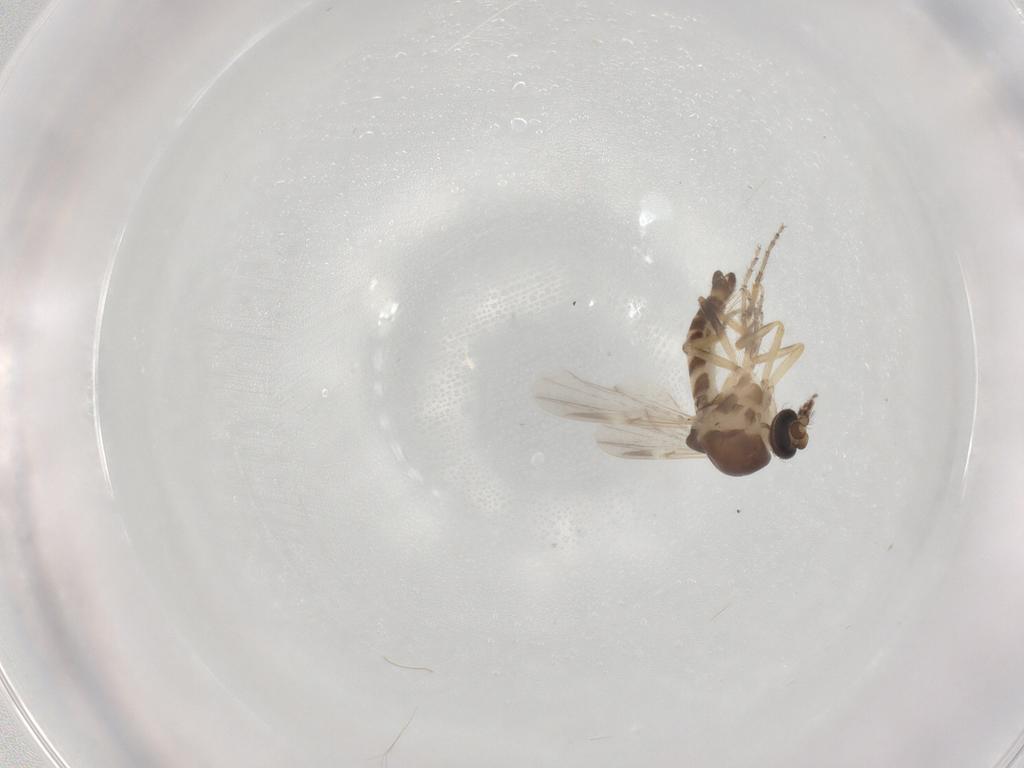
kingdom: Animalia
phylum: Arthropoda
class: Insecta
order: Diptera
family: Ceratopogonidae
